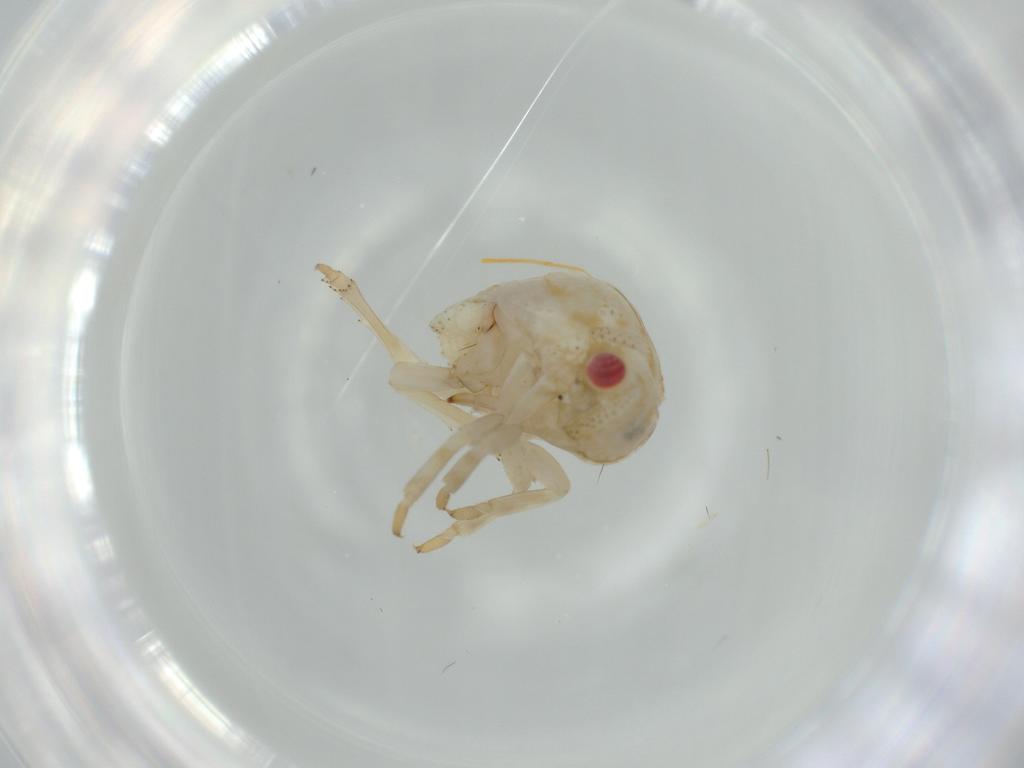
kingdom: Animalia
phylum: Arthropoda
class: Insecta
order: Hemiptera
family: Acanaloniidae
